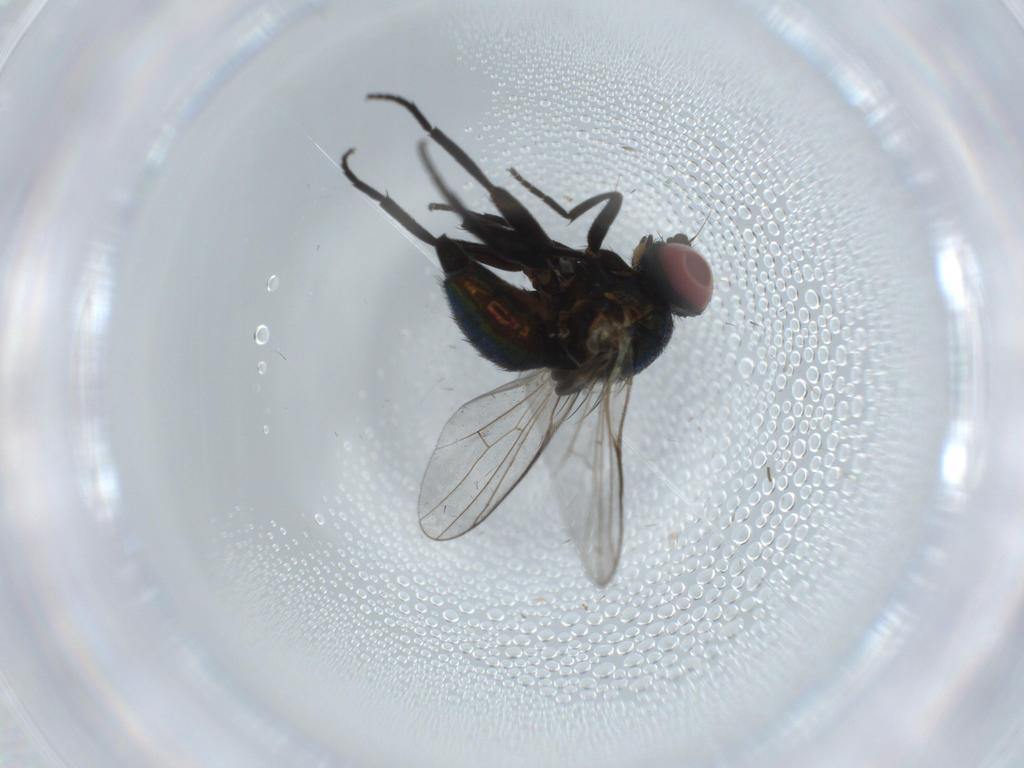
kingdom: Animalia
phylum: Arthropoda
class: Insecta
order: Diptera
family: Agromyzidae
